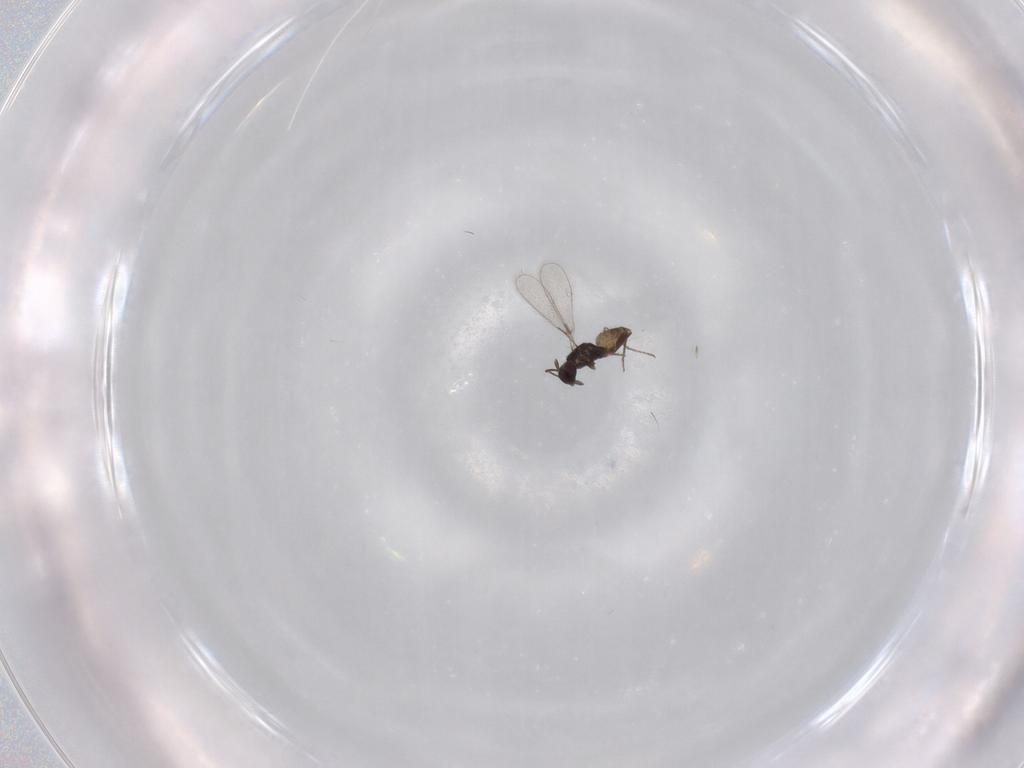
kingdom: Animalia
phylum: Arthropoda
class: Insecta
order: Hymenoptera
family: Mymaridae
